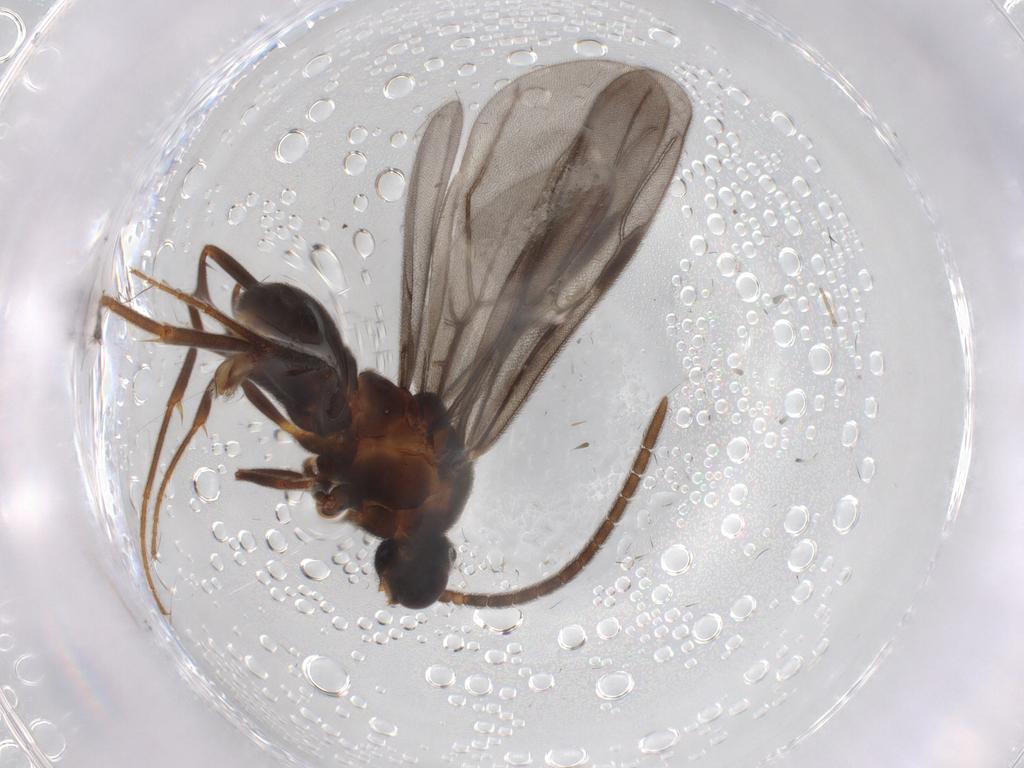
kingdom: Animalia
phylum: Arthropoda
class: Insecta
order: Hymenoptera
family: Formicidae
